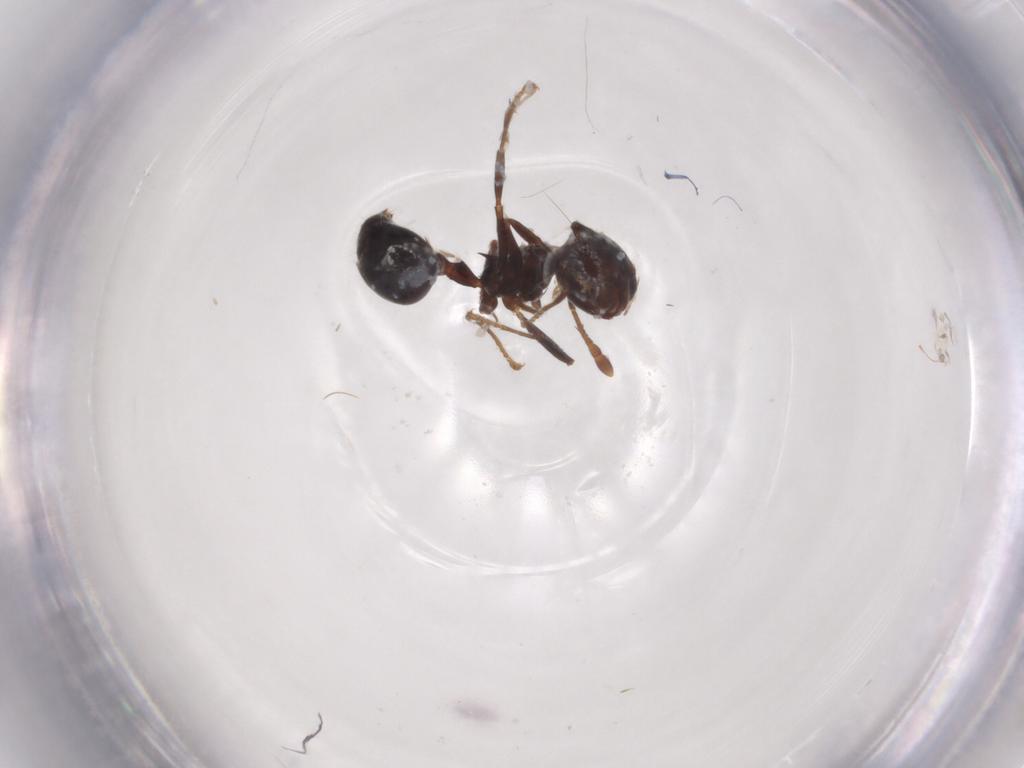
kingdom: Animalia
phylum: Arthropoda
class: Insecta
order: Hymenoptera
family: Formicidae
